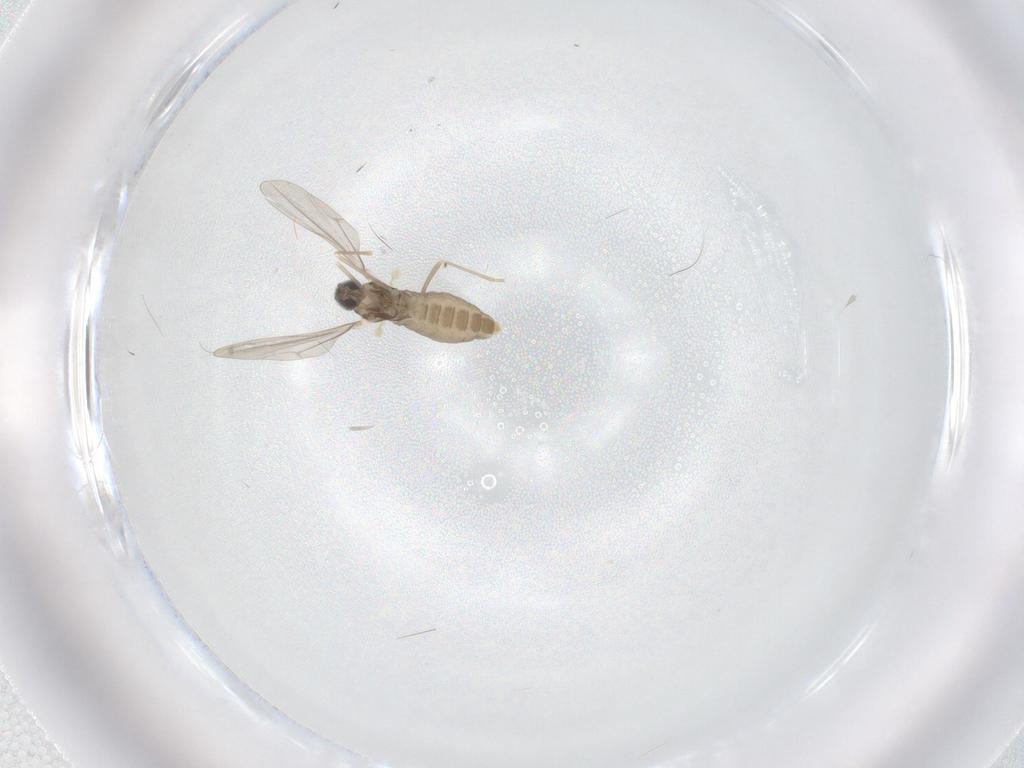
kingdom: Animalia
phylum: Arthropoda
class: Insecta
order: Diptera
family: Cecidomyiidae
